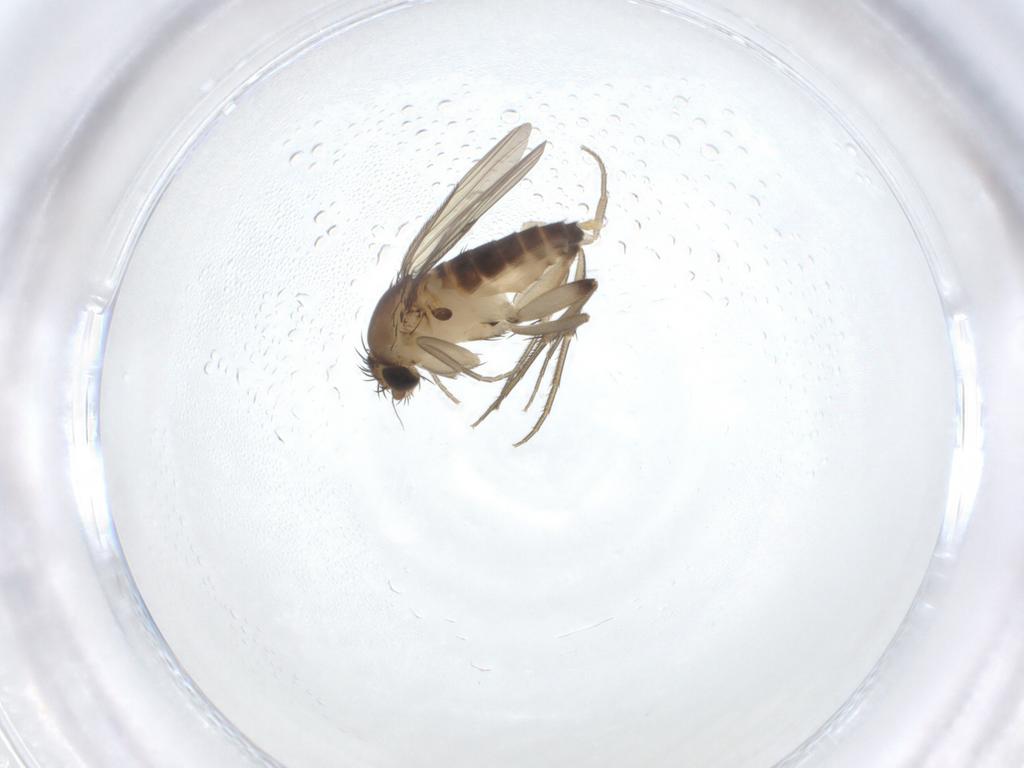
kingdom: Animalia
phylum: Arthropoda
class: Insecta
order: Diptera
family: Phoridae
